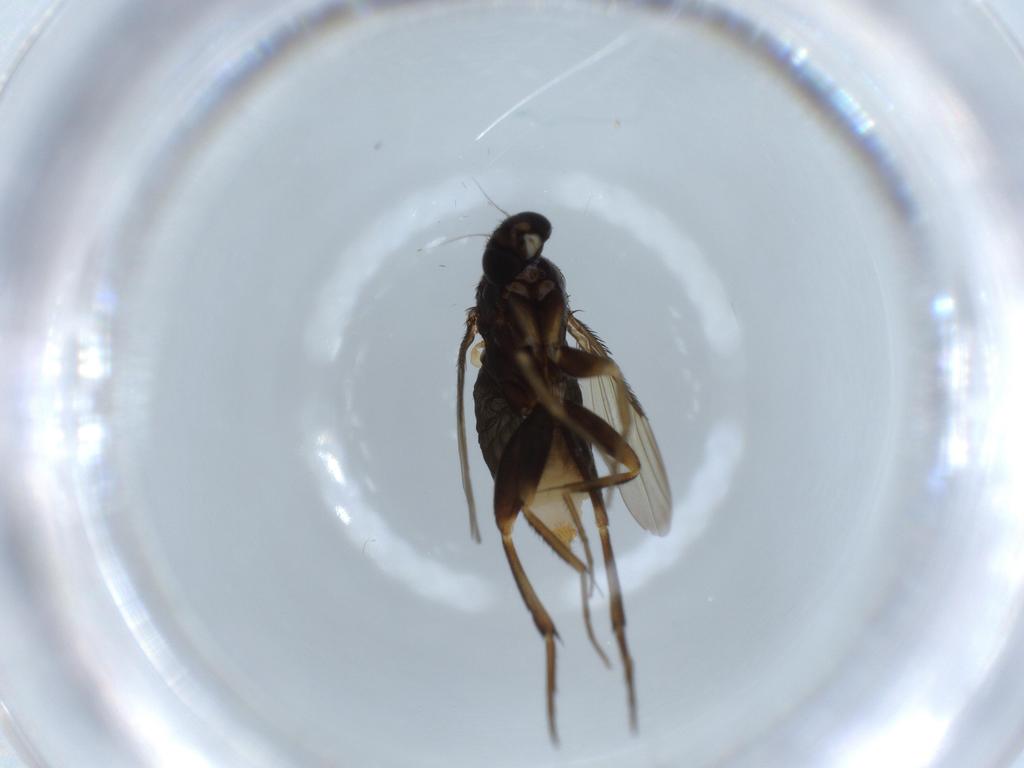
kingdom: Animalia
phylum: Arthropoda
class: Insecta
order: Diptera
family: Phoridae
